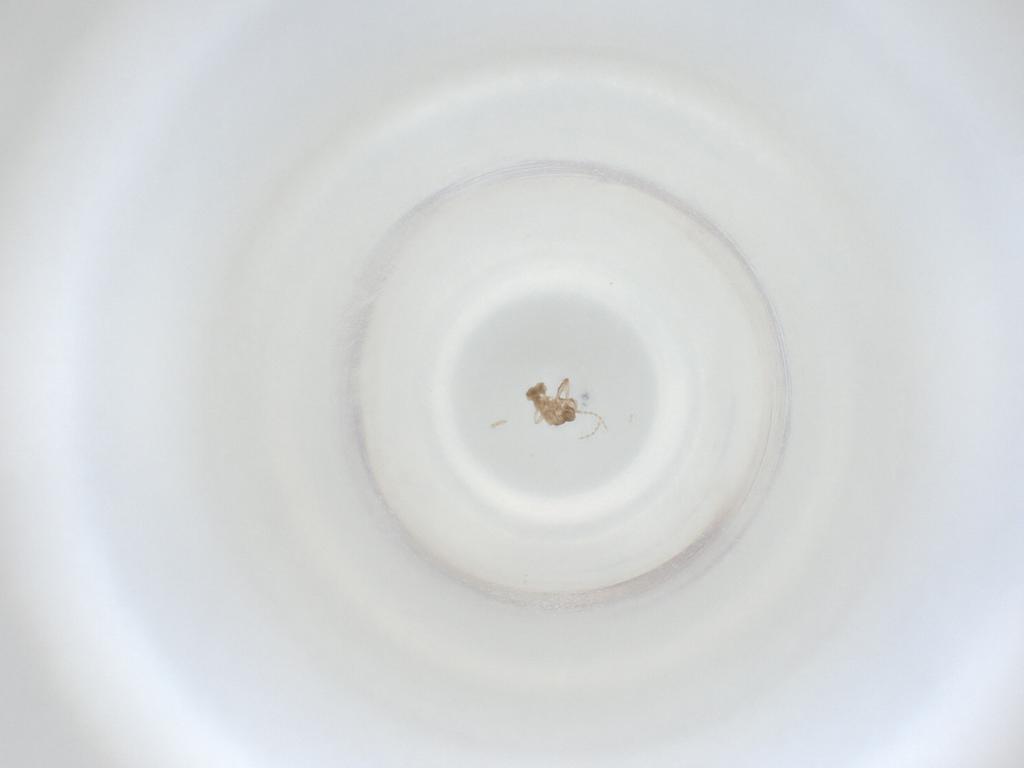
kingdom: Animalia
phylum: Arthropoda
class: Insecta
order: Diptera
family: Cecidomyiidae
